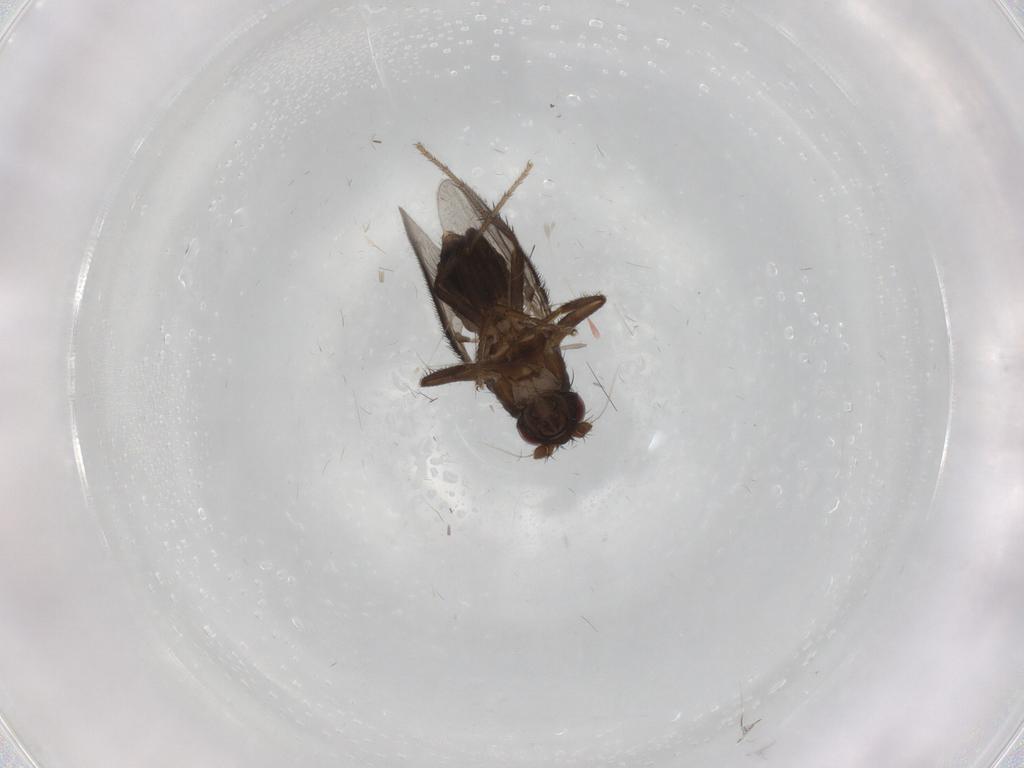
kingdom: Animalia
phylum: Arthropoda
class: Insecta
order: Diptera
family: Sphaeroceridae
